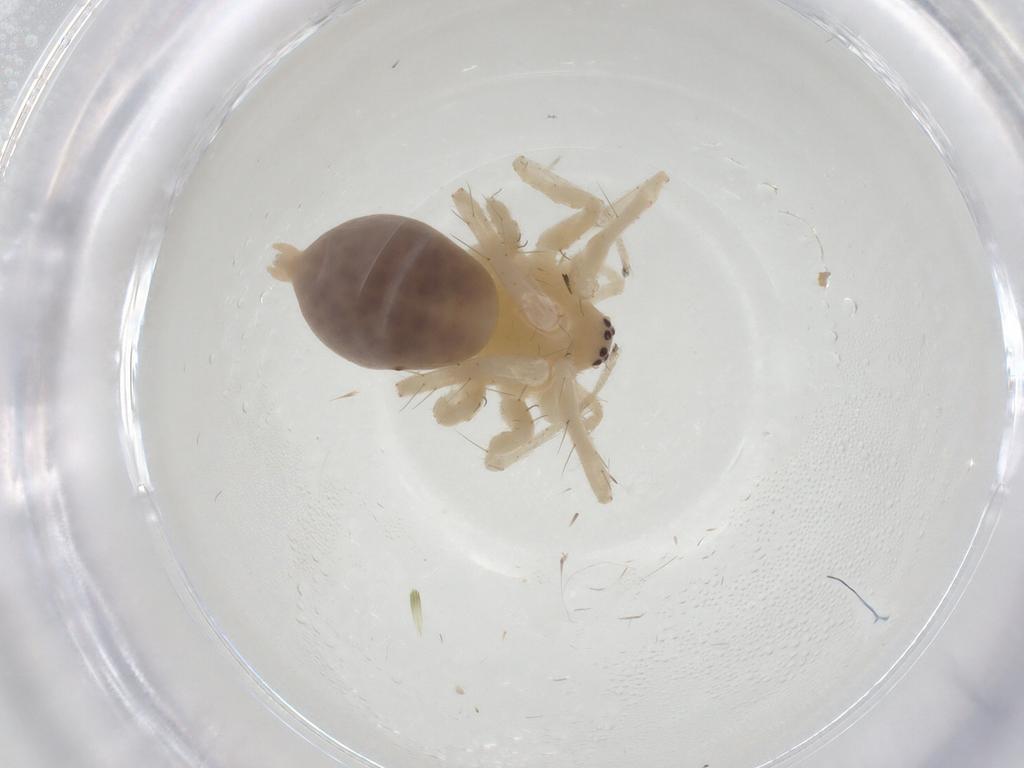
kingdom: Animalia
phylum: Arthropoda
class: Arachnida
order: Araneae
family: Anyphaenidae
